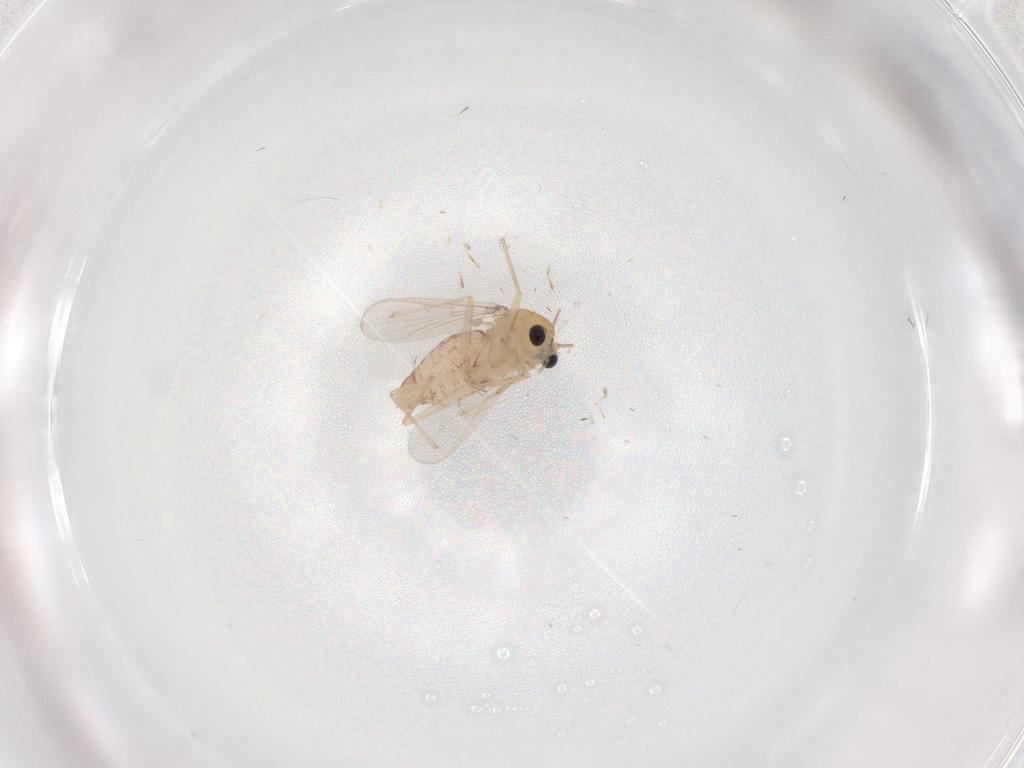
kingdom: Animalia
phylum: Arthropoda
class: Insecta
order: Diptera
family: Chironomidae
